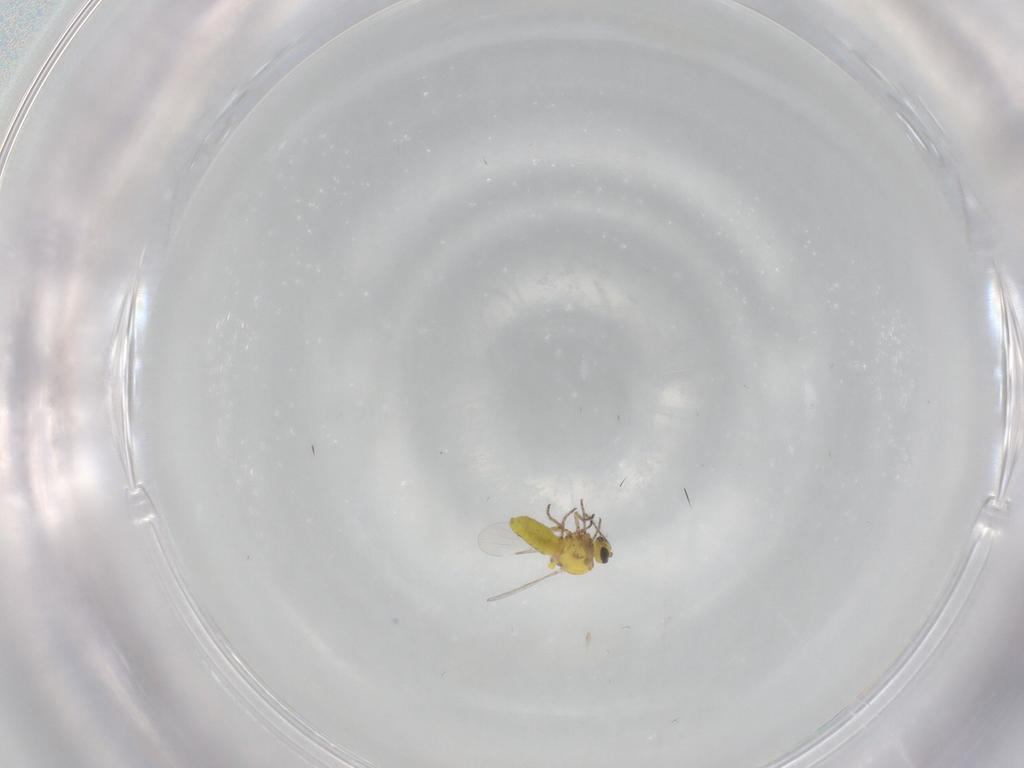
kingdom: Animalia
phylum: Arthropoda
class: Insecta
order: Diptera
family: Ceratopogonidae
